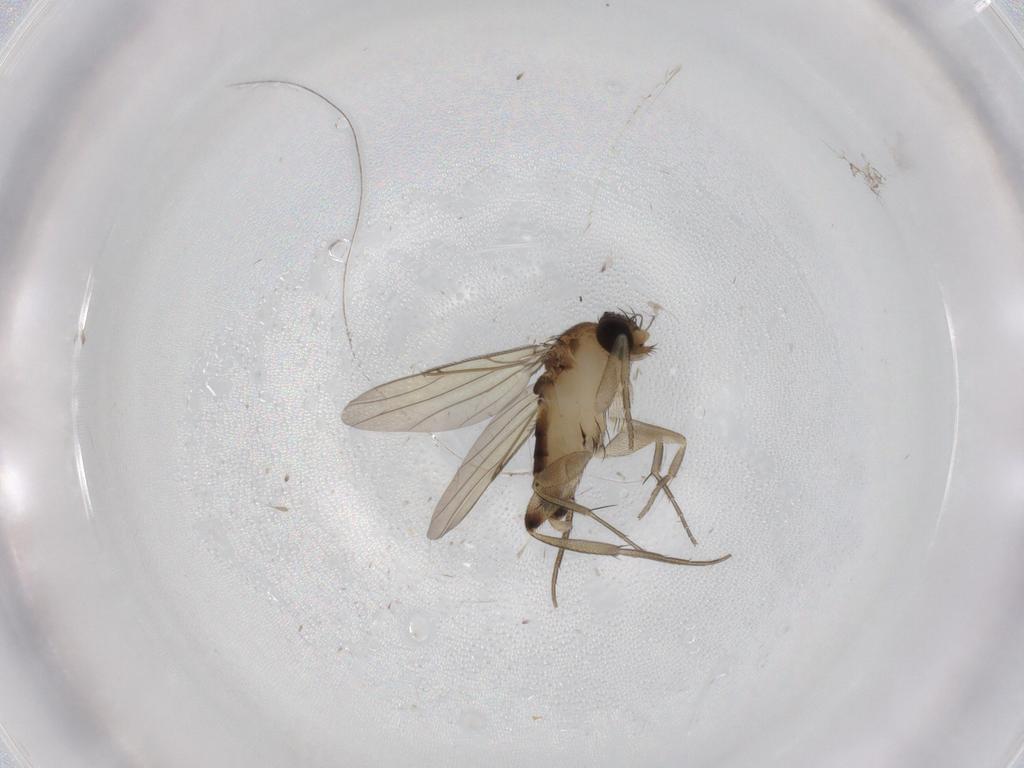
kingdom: Animalia
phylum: Arthropoda
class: Insecta
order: Diptera
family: Phoridae
